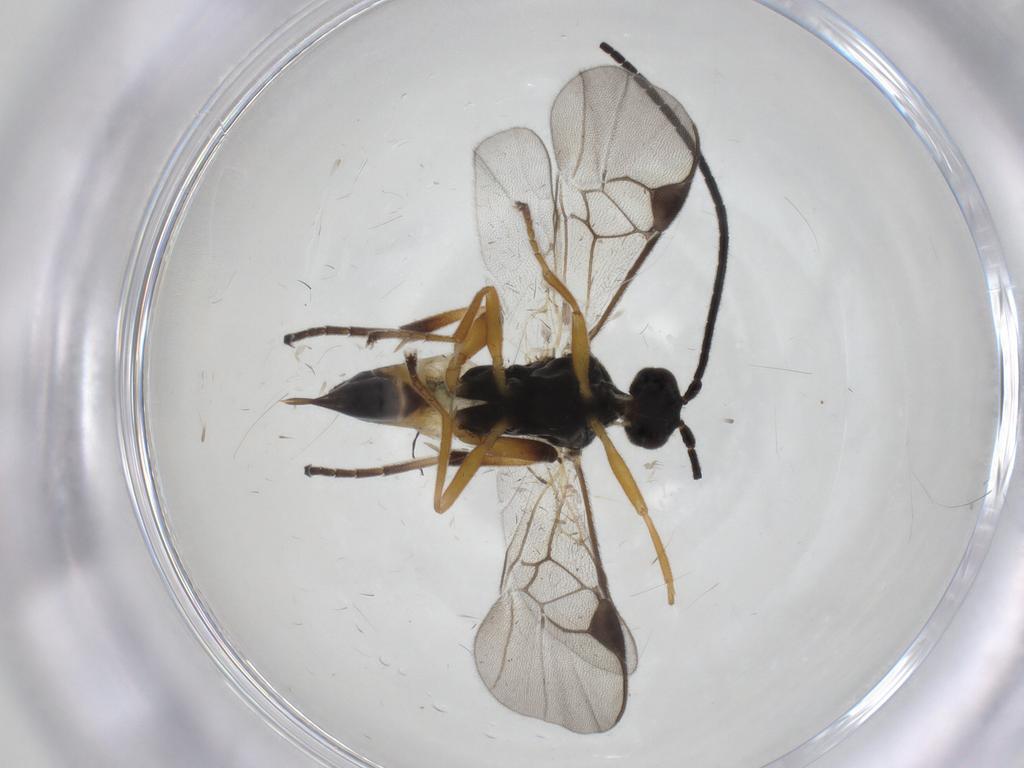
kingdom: Animalia
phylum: Arthropoda
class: Insecta
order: Hymenoptera
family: Braconidae
